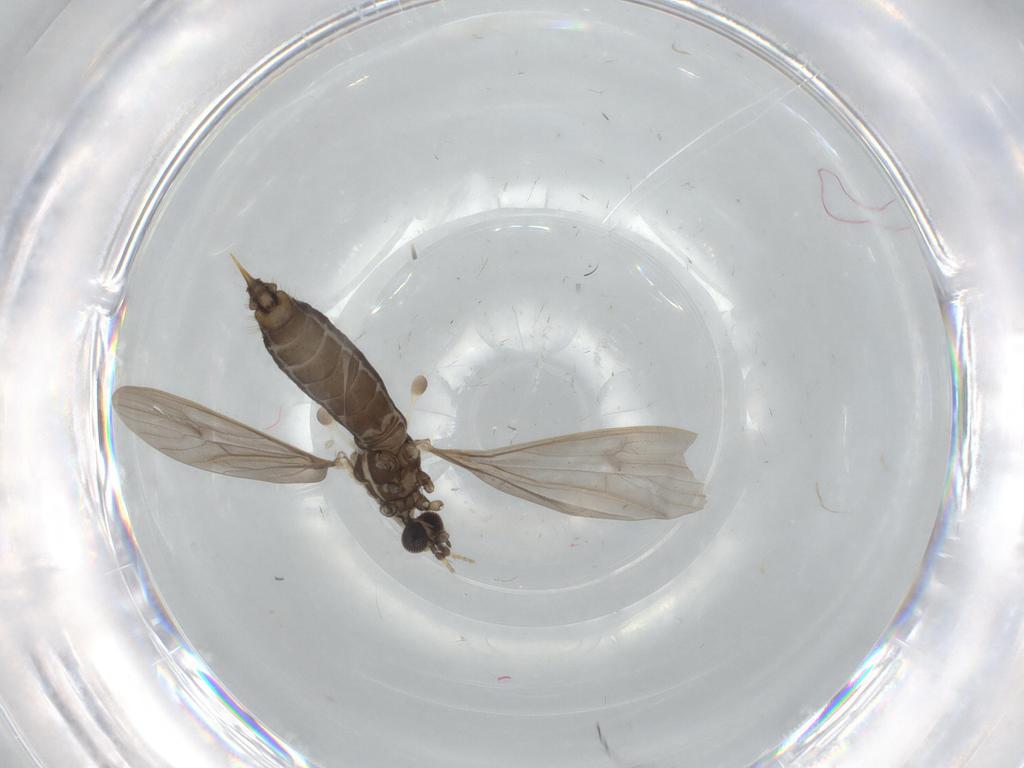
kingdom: Animalia
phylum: Arthropoda
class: Insecta
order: Diptera
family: Limoniidae
